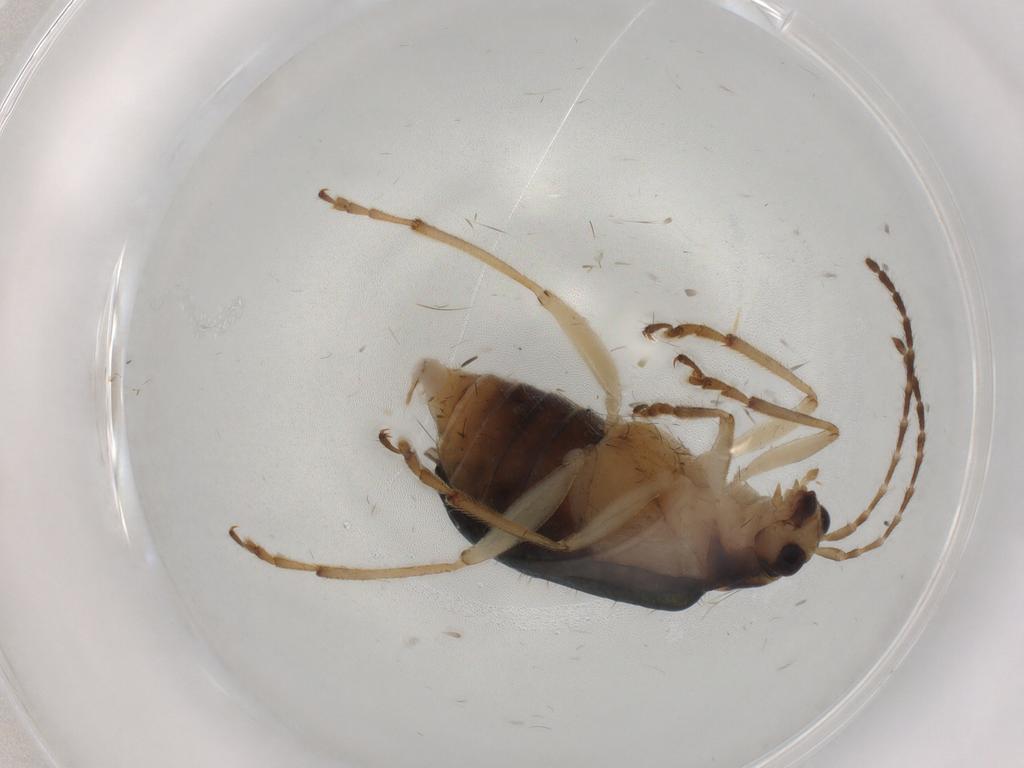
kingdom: Animalia
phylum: Arthropoda
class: Insecta
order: Coleoptera
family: Chrysomelidae
